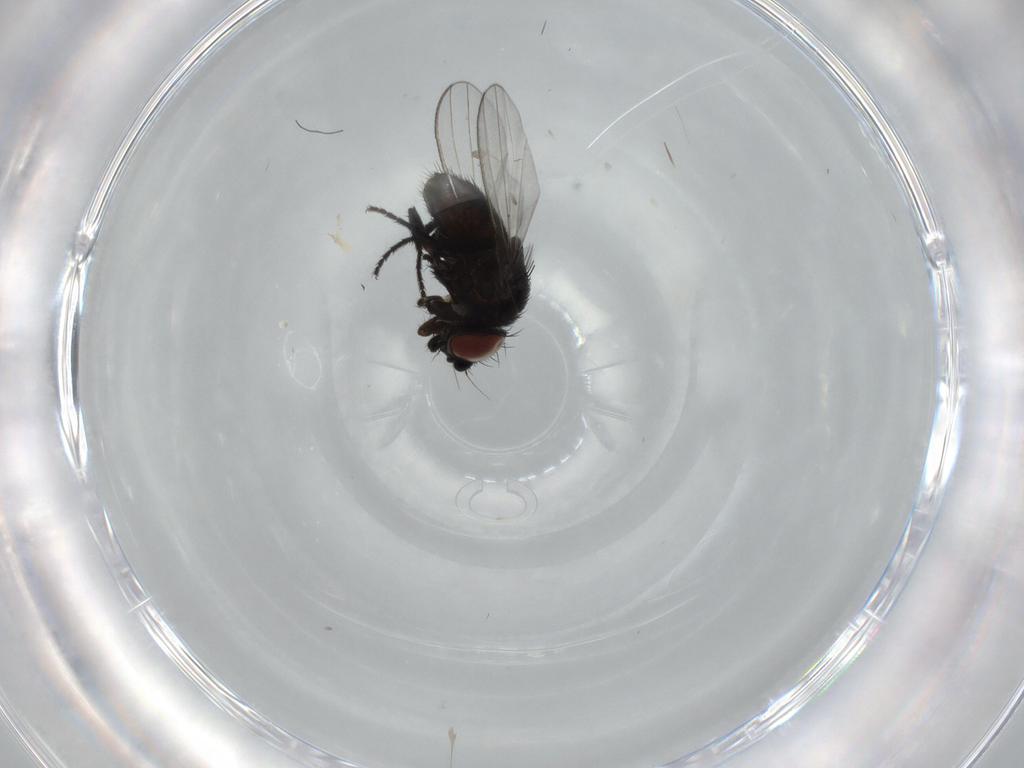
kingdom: Animalia
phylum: Arthropoda
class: Insecta
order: Diptera
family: Milichiidae
